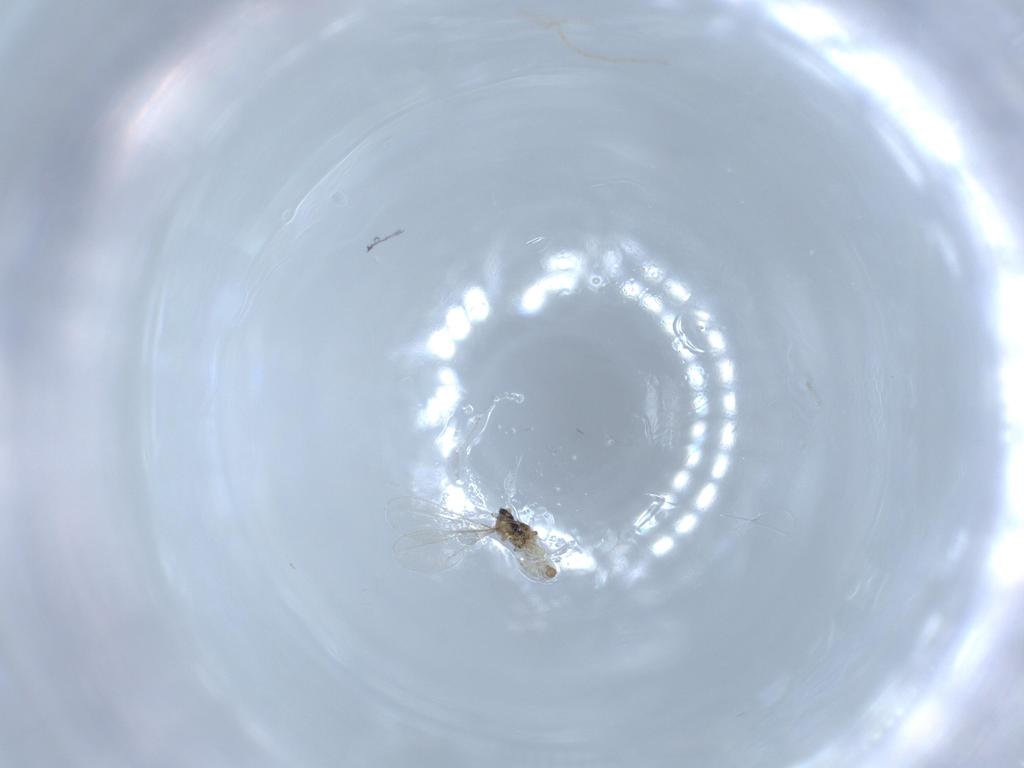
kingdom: Animalia
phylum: Arthropoda
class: Insecta
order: Diptera
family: Cecidomyiidae
